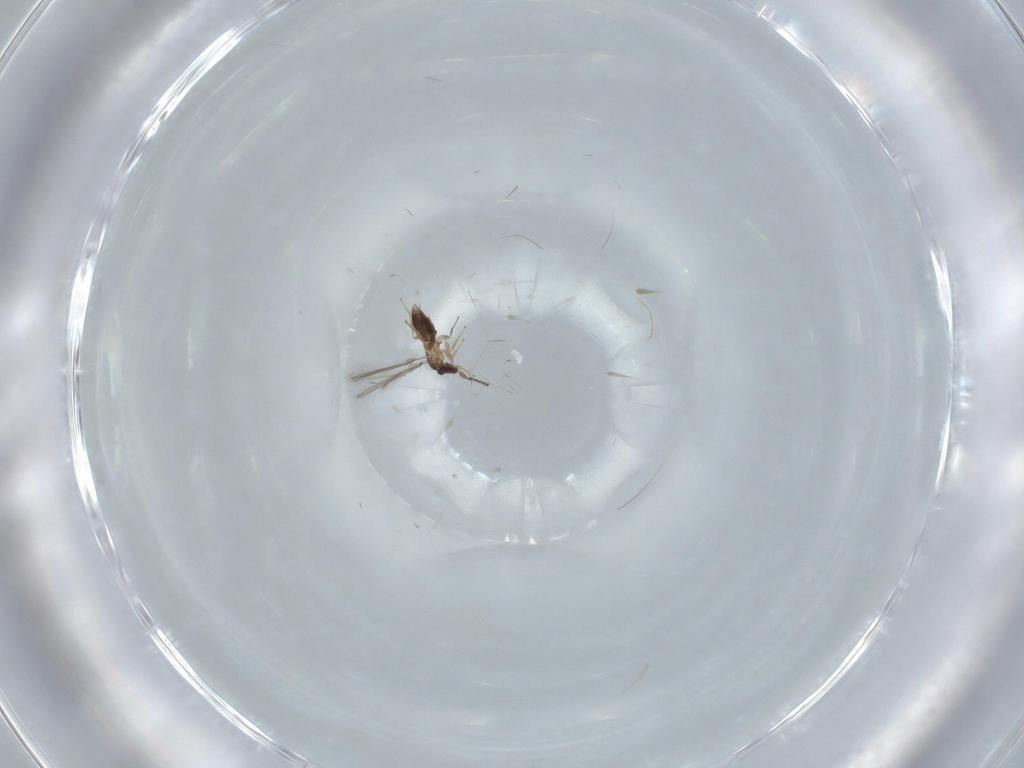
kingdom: Animalia
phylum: Arthropoda
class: Insecta
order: Hymenoptera
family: Mymaridae
